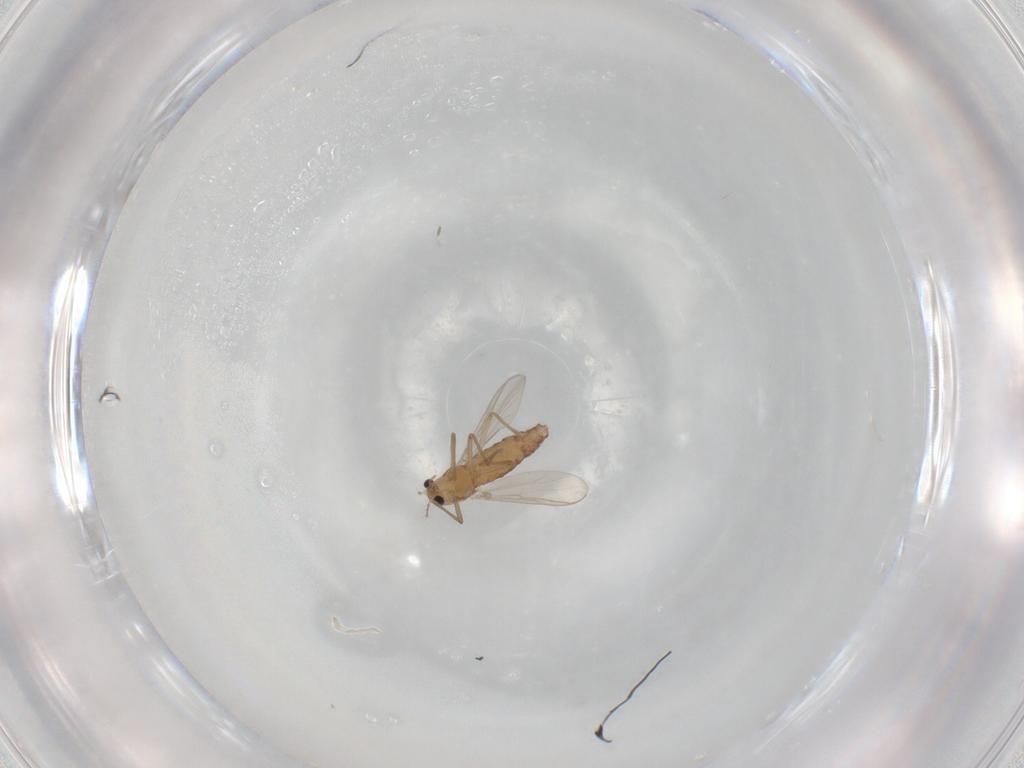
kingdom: Animalia
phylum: Arthropoda
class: Insecta
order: Diptera
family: Chironomidae
